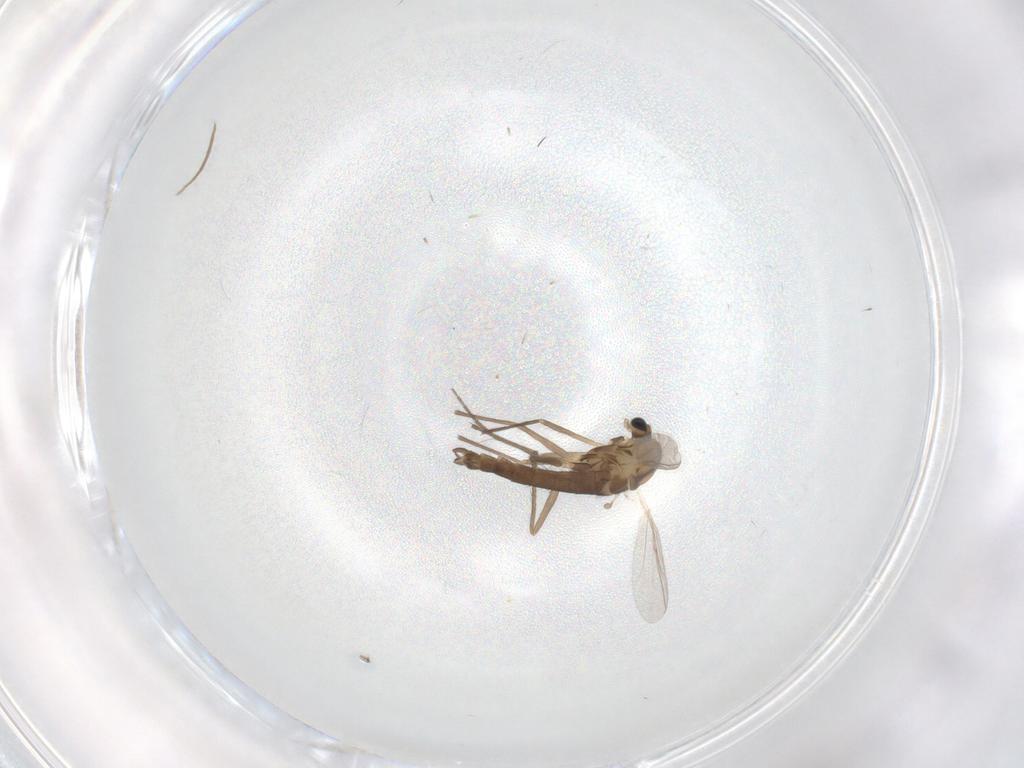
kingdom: Animalia
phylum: Arthropoda
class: Insecta
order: Diptera
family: Chironomidae
